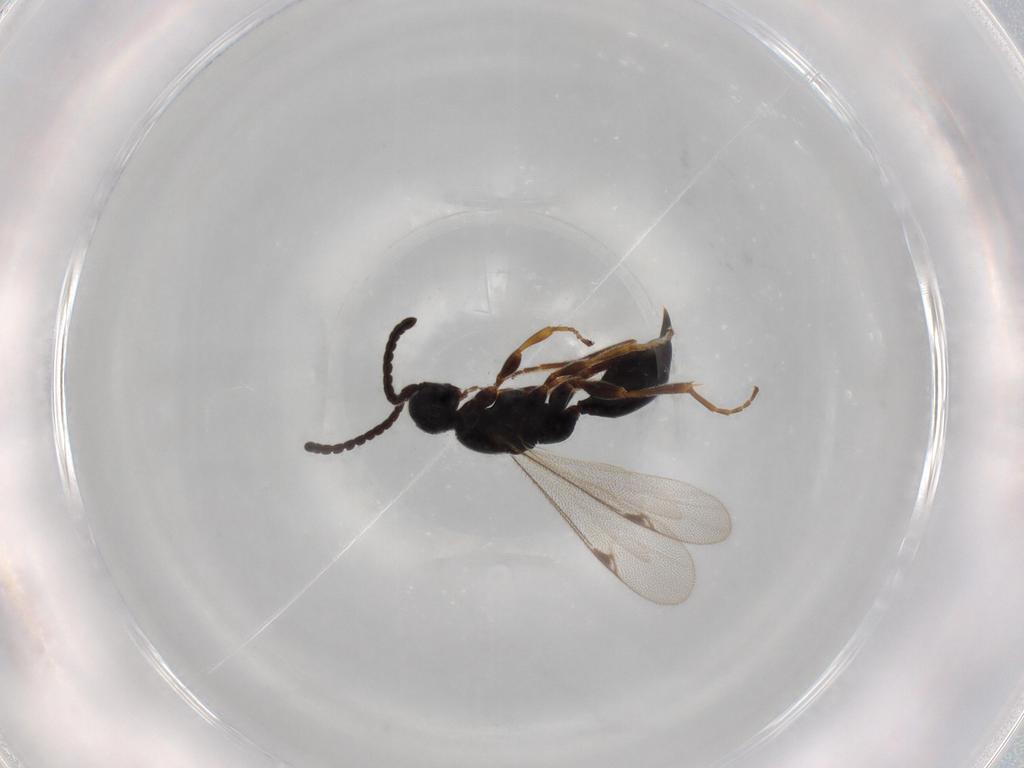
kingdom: Animalia
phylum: Arthropoda
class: Insecta
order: Hymenoptera
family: Proctotrupidae
